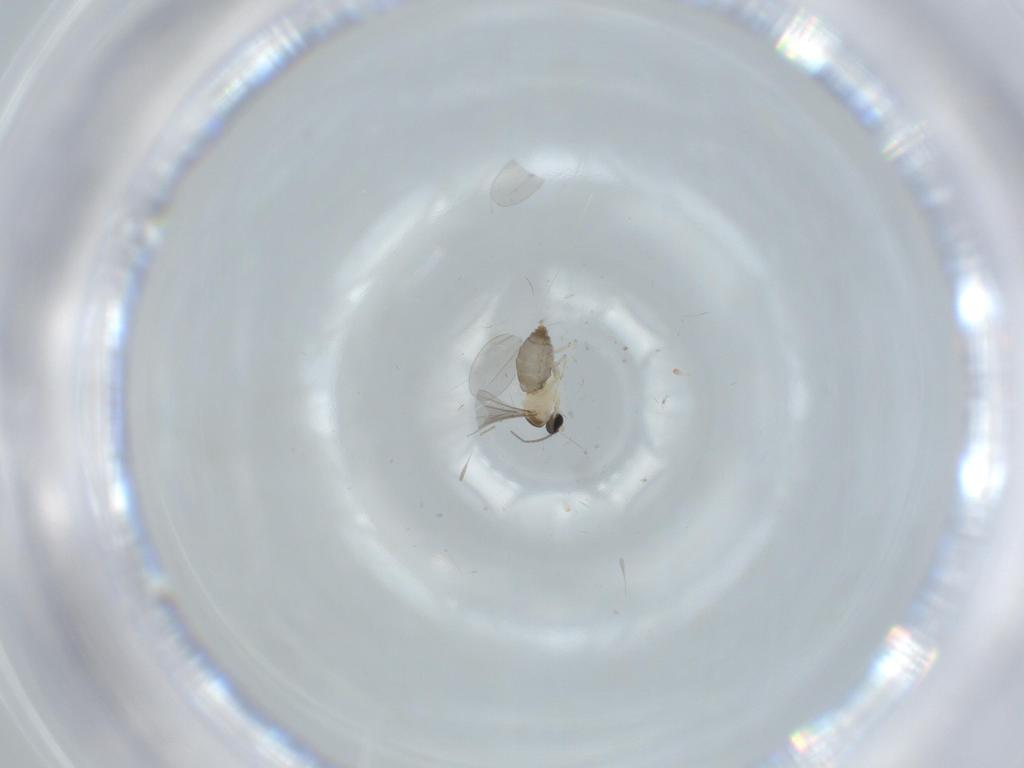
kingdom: Animalia
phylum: Arthropoda
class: Insecta
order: Diptera
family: Cecidomyiidae
